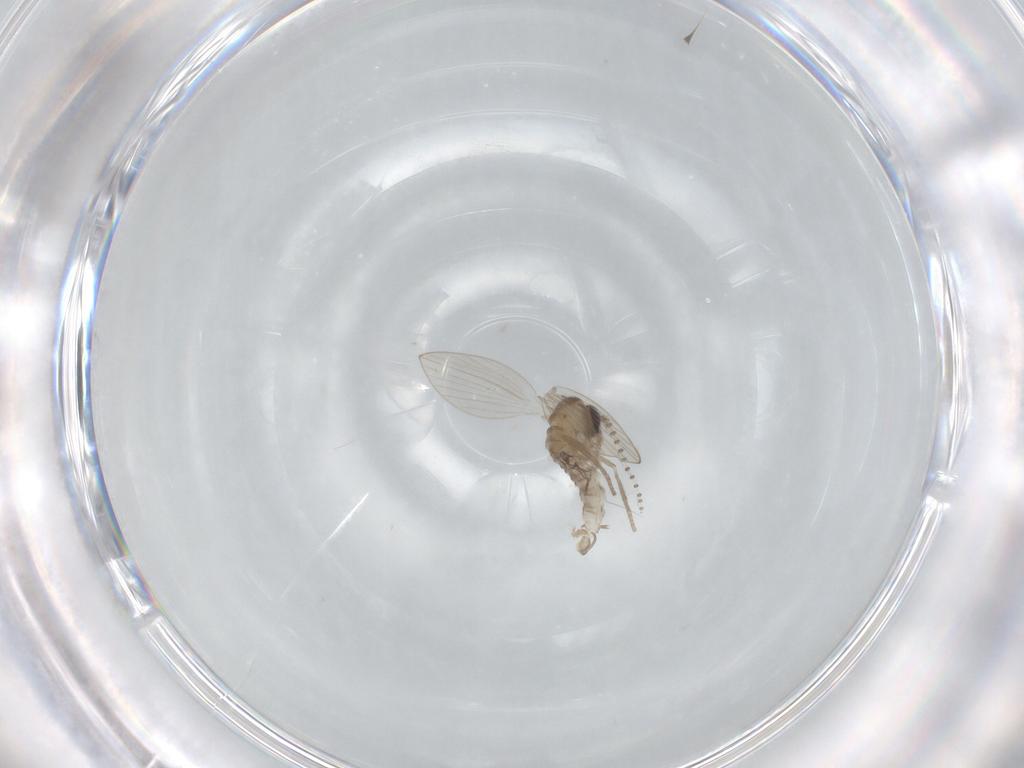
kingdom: Animalia
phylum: Arthropoda
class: Insecta
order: Diptera
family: Psychodidae
